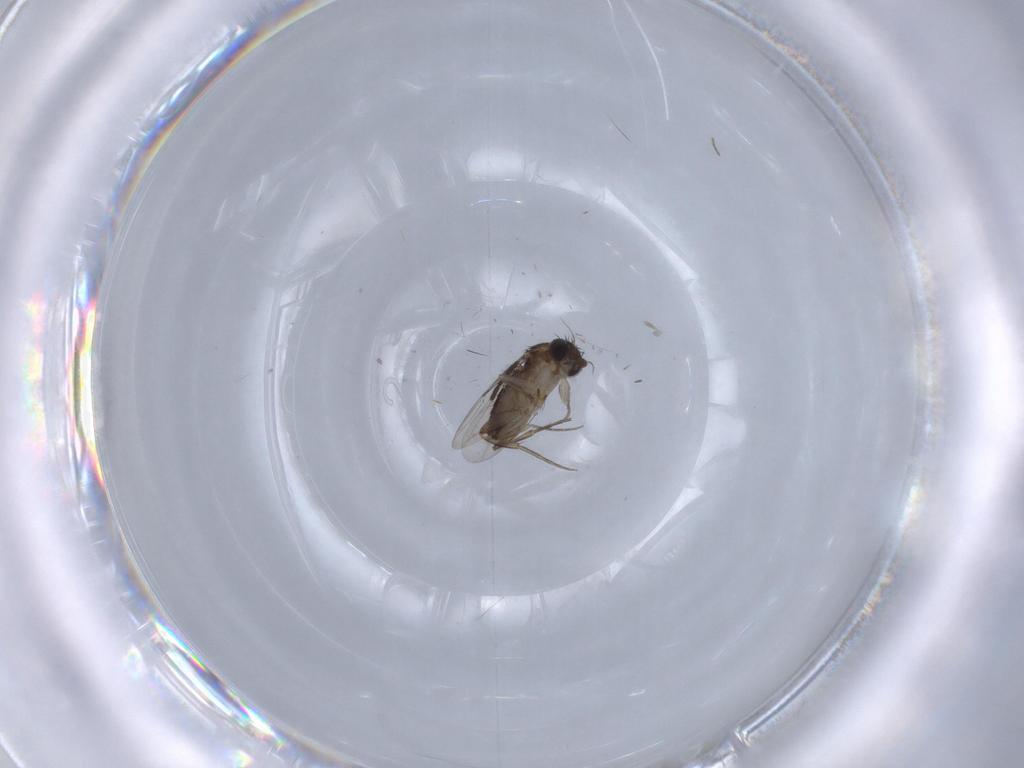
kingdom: Animalia
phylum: Arthropoda
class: Insecta
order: Diptera
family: Phoridae
